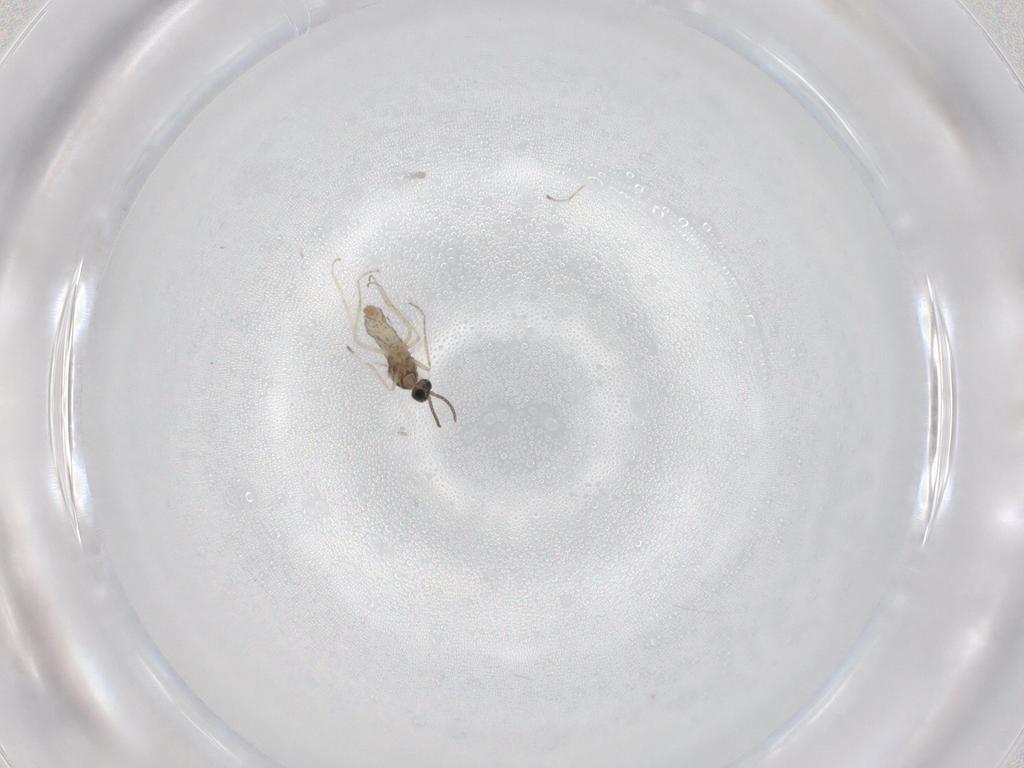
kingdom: Animalia
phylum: Arthropoda
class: Insecta
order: Diptera
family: Cecidomyiidae
